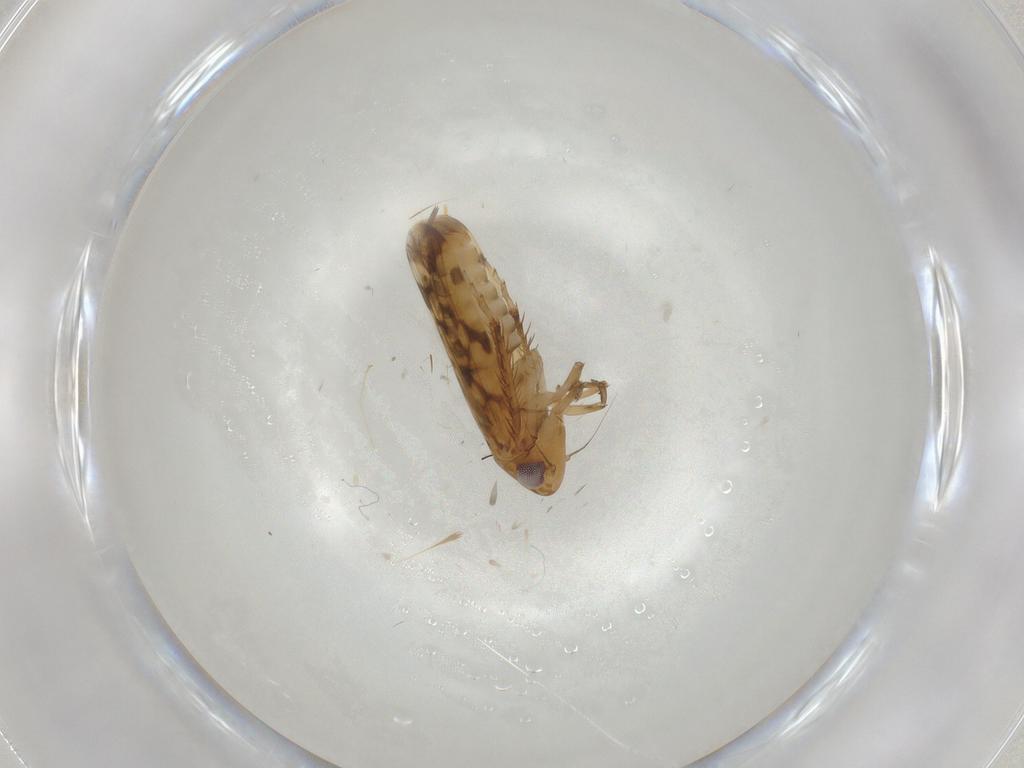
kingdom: Animalia
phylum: Arthropoda
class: Insecta
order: Hemiptera
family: Cicadellidae
